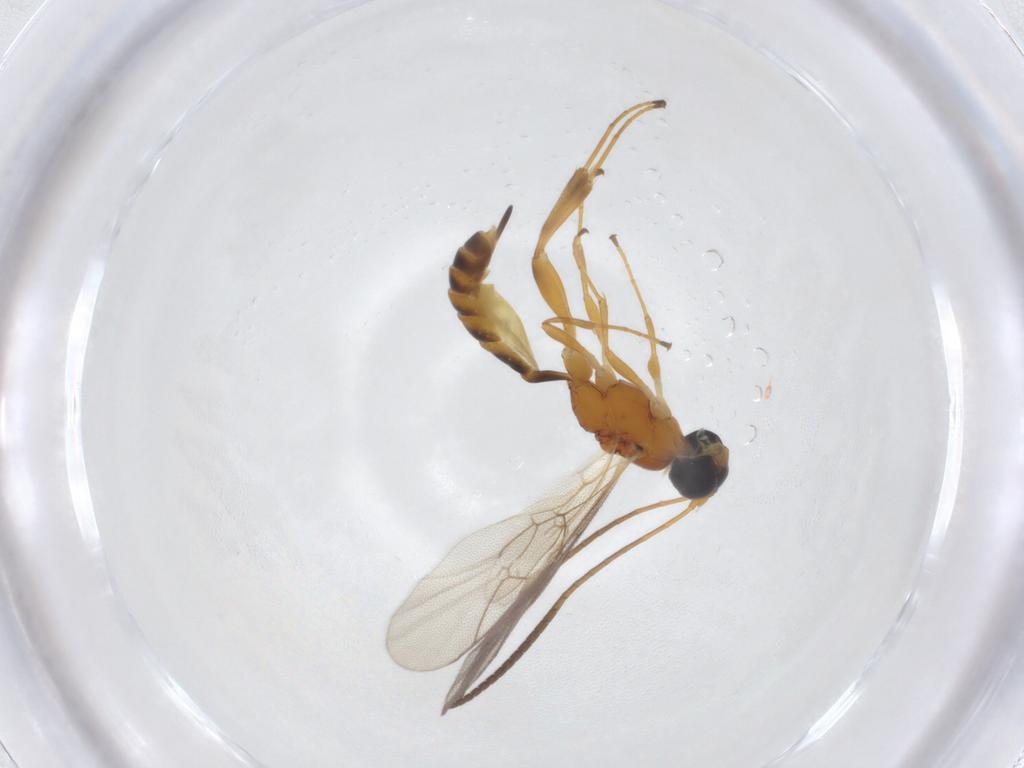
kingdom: Animalia
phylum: Arthropoda
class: Insecta
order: Hymenoptera
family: Ichneumonidae
